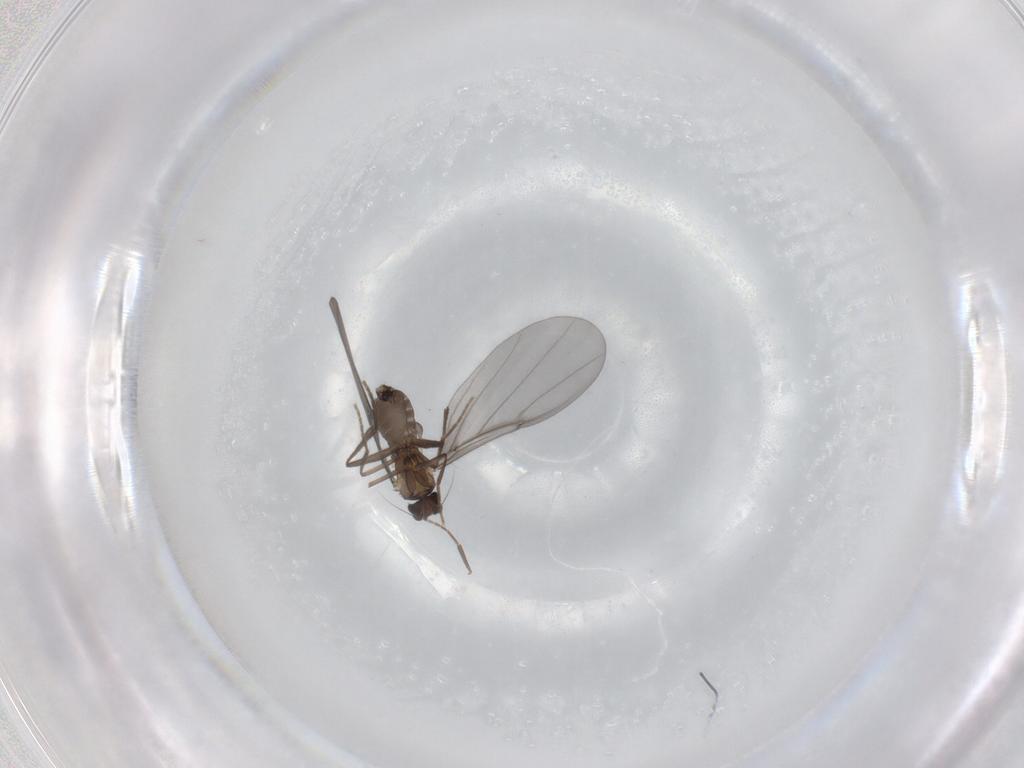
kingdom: Animalia
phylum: Arthropoda
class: Insecta
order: Diptera
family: Phoridae
